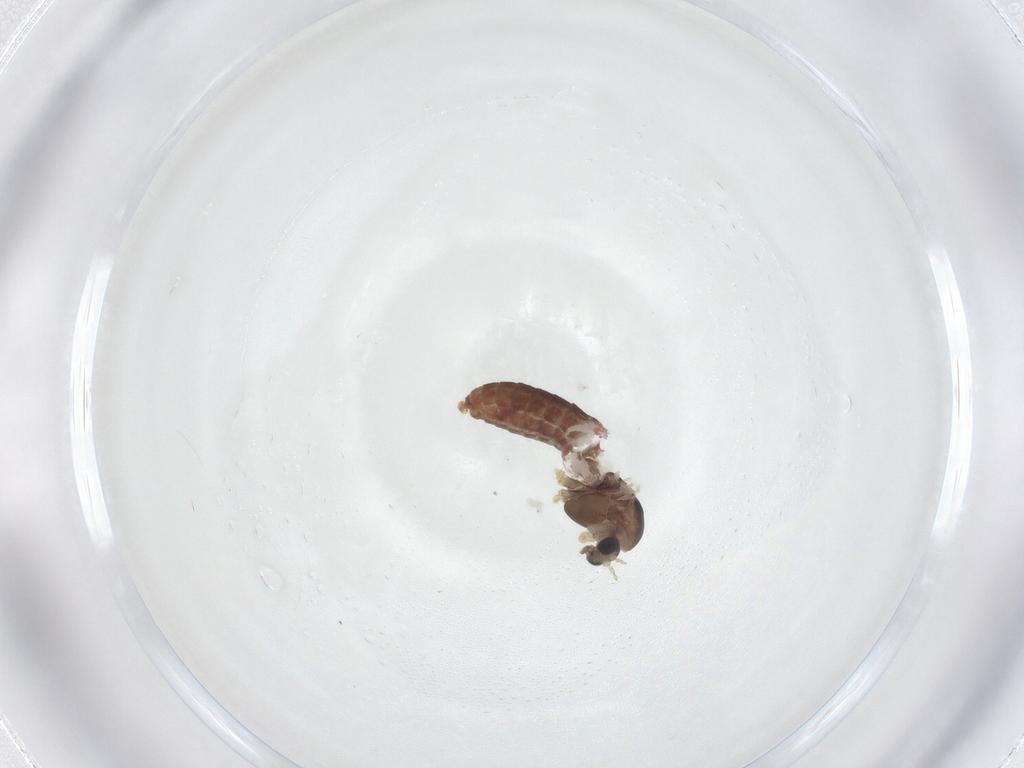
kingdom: Animalia
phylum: Arthropoda
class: Insecta
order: Diptera
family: Chironomidae
